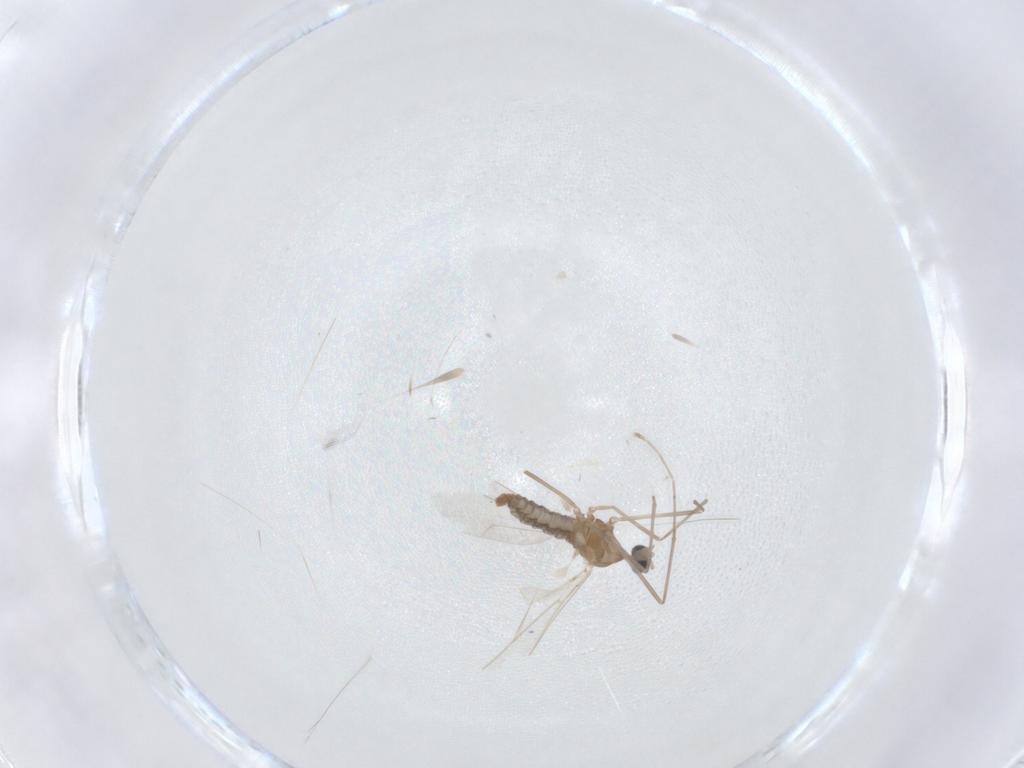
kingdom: Animalia
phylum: Arthropoda
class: Insecta
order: Diptera
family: Cecidomyiidae
